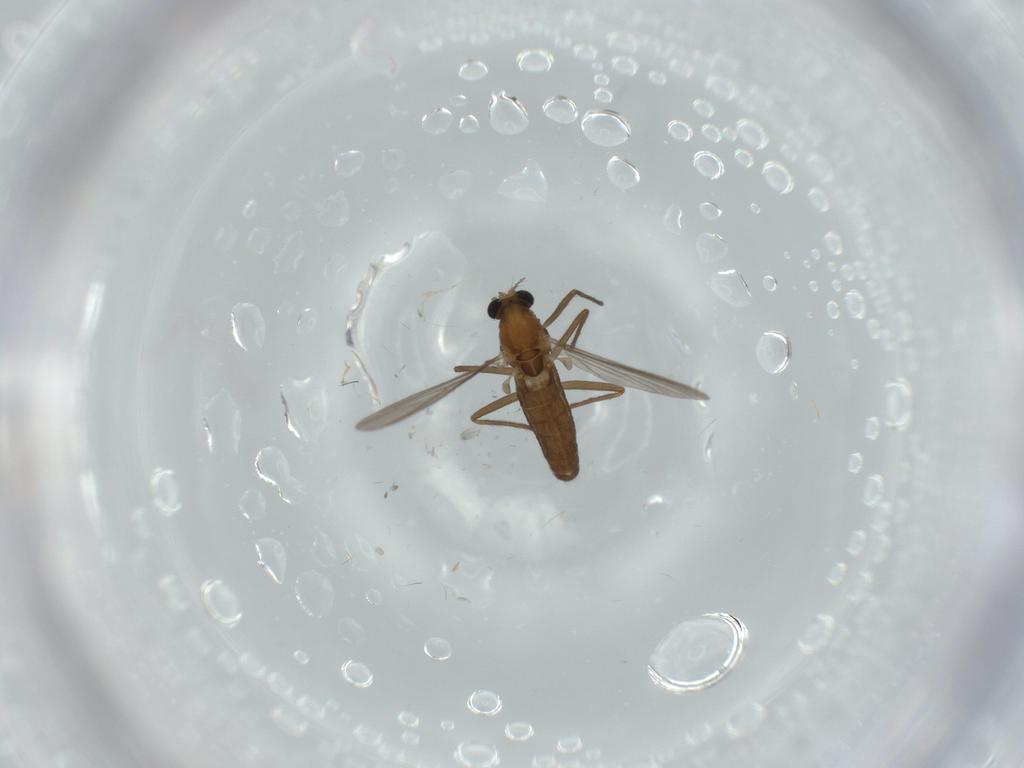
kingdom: Animalia
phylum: Arthropoda
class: Insecta
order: Diptera
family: Chironomidae
